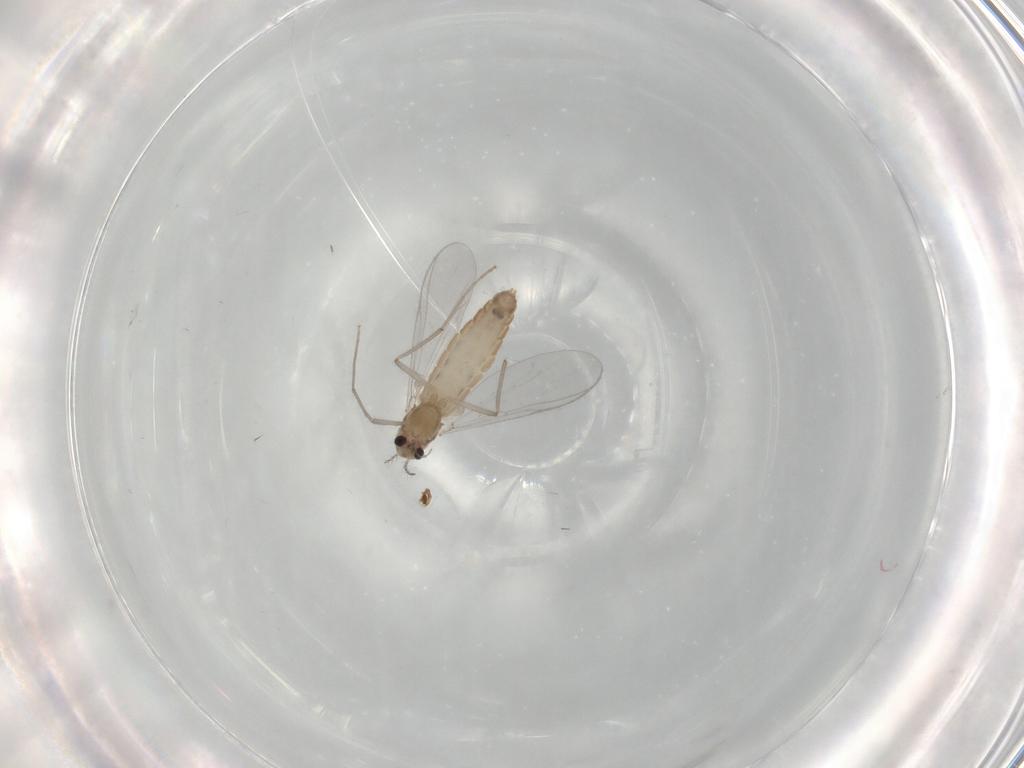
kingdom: Animalia
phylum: Arthropoda
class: Insecta
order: Diptera
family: Chironomidae
